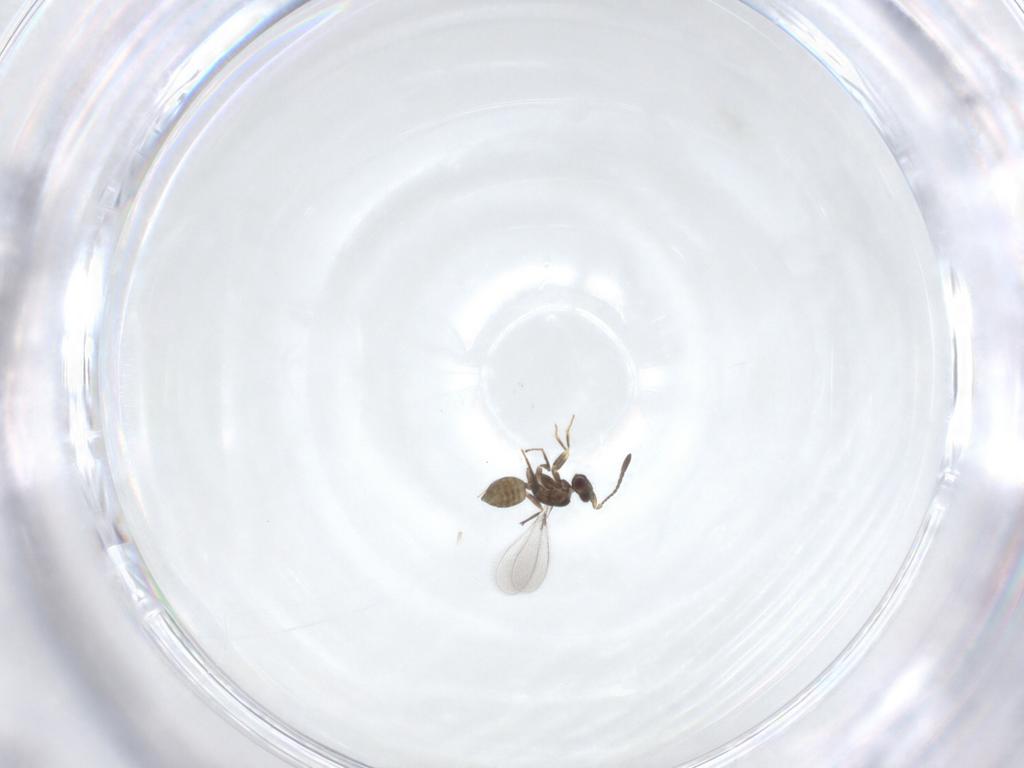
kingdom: Animalia
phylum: Arthropoda
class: Insecta
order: Hymenoptera
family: Mymaridae
